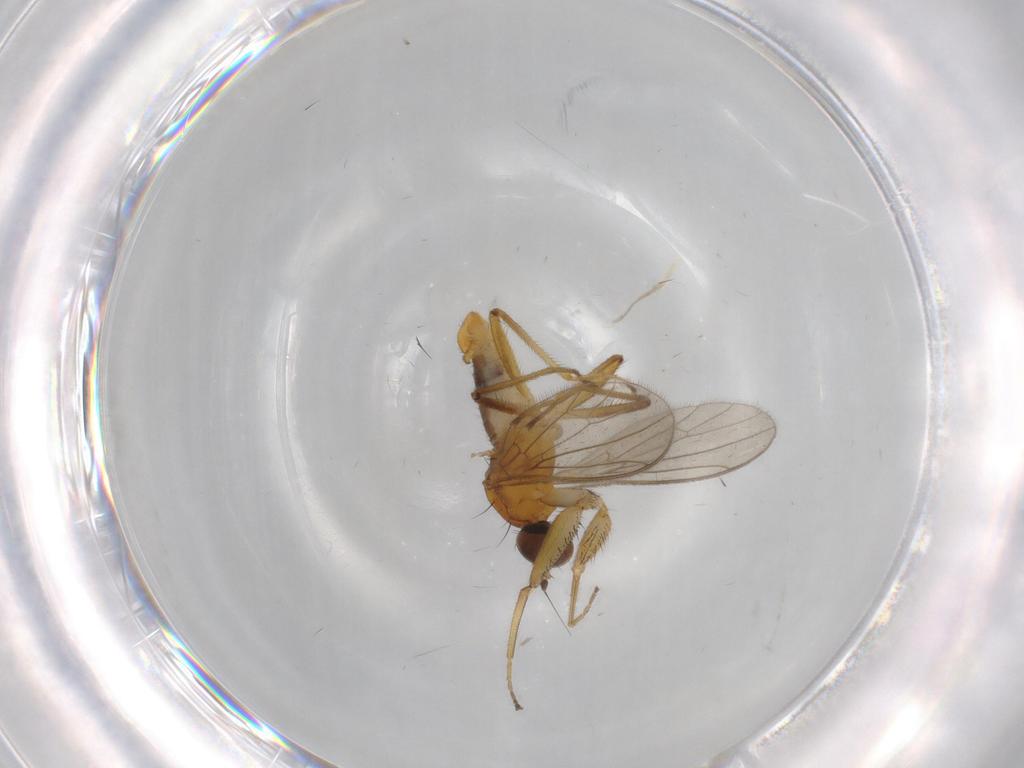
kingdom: Animalia
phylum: Arthropoda
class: Insecta
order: Diptera
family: Empididae
